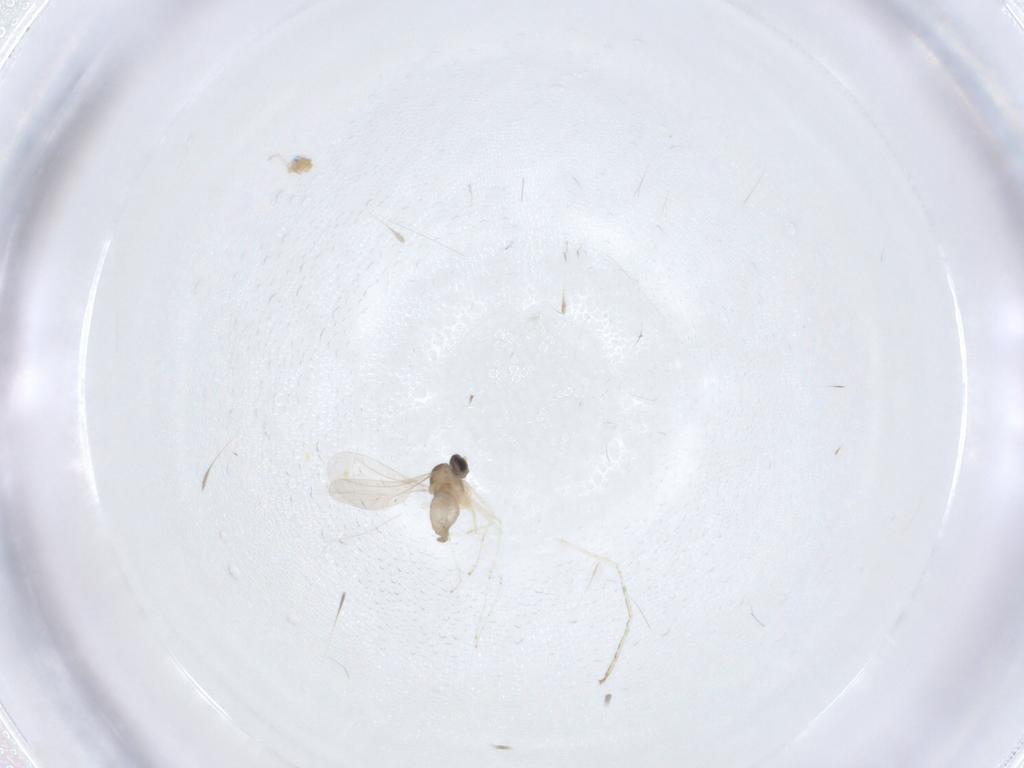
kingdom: Animalia
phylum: Arthropoda
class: Insecta
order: Diptera
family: Cecidomyiidae
